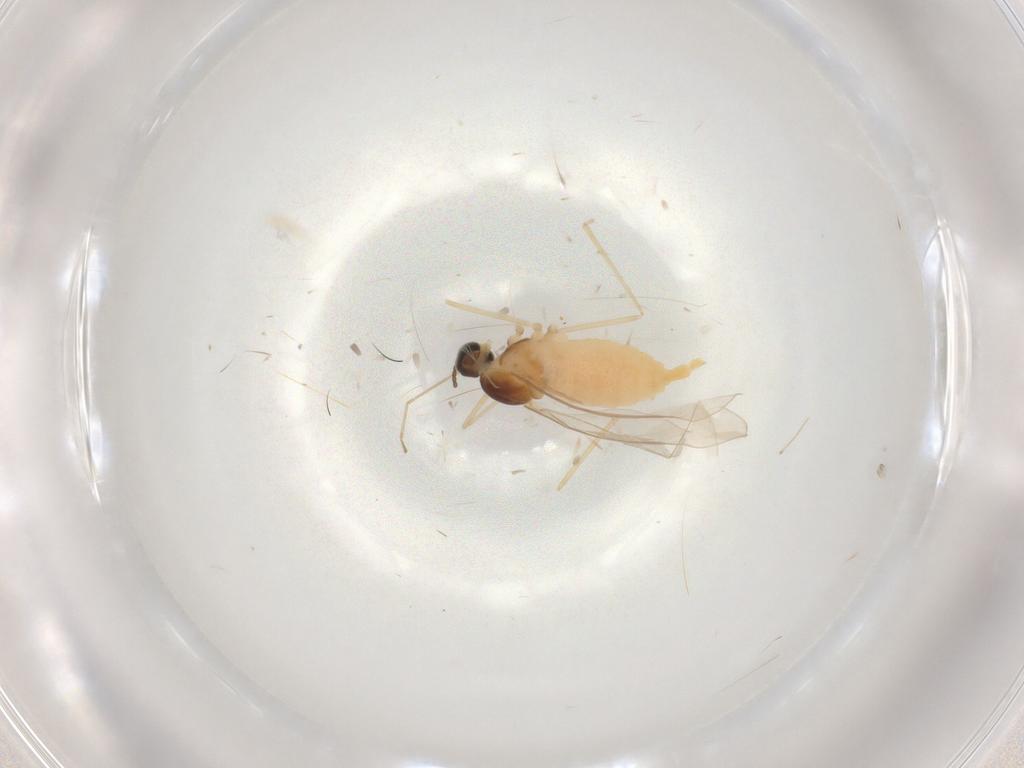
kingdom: Animalia
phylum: Arthropoda
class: Insecta
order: Diptera
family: Cecidomyiidae
